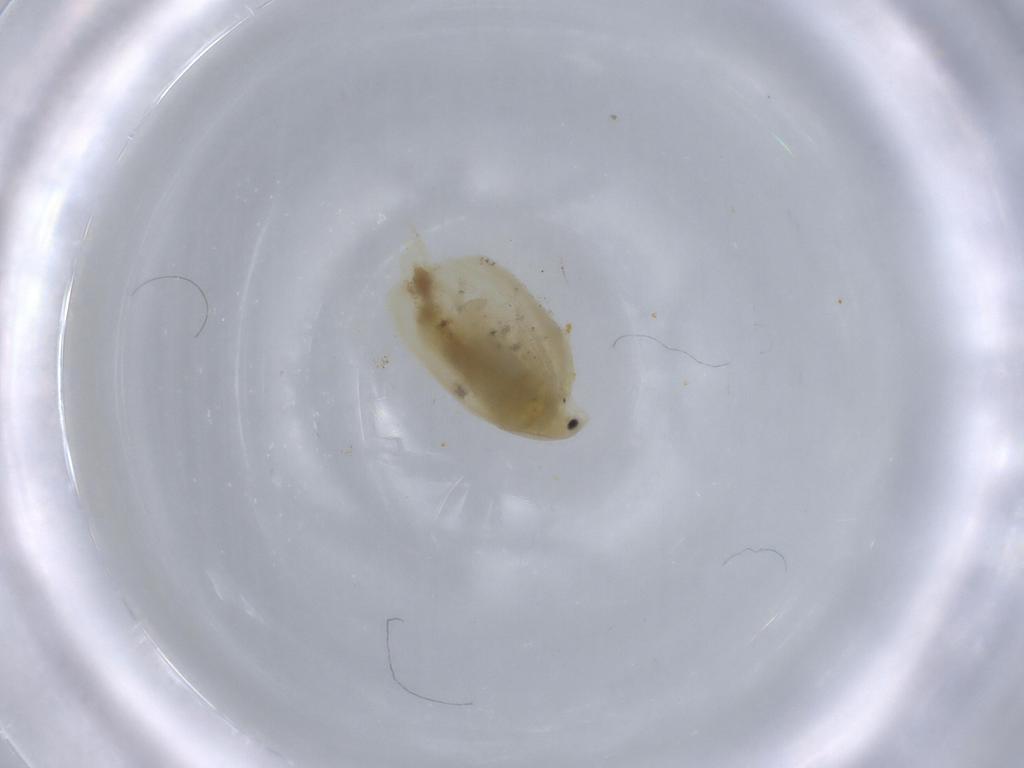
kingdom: Animalia
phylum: Arthropoda
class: Branchiopoda
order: Anomopoda
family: Daphniidae
